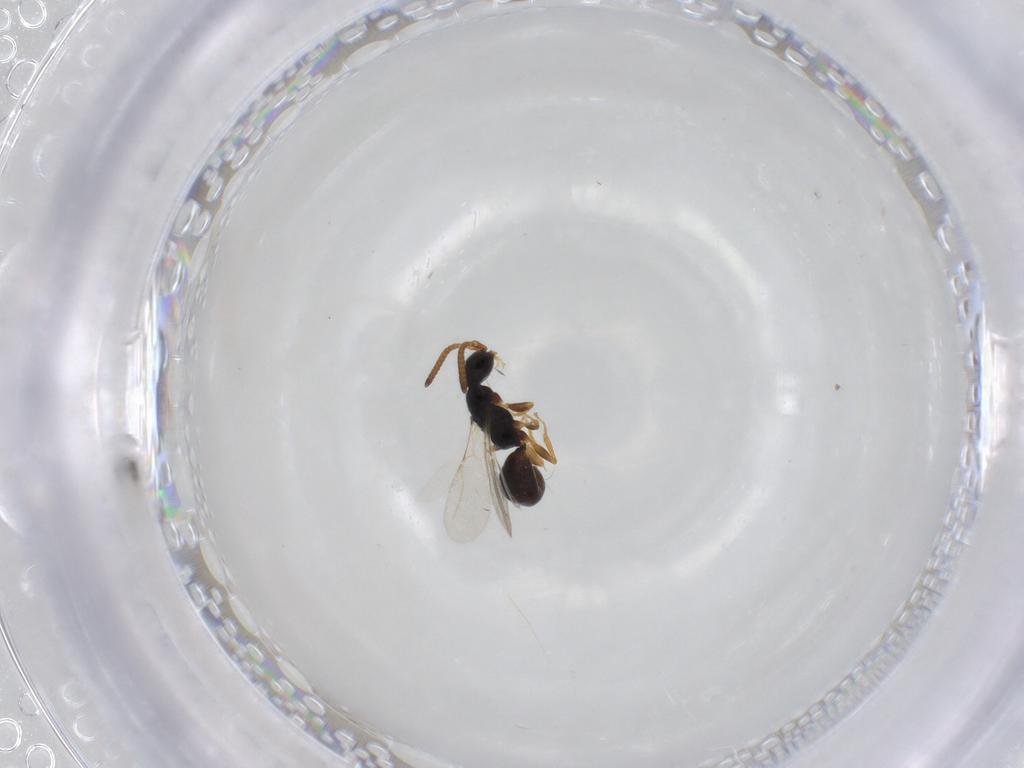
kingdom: Animalia
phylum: Arthropoda
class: Insecta
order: Hymenoptera
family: Bethylidae
